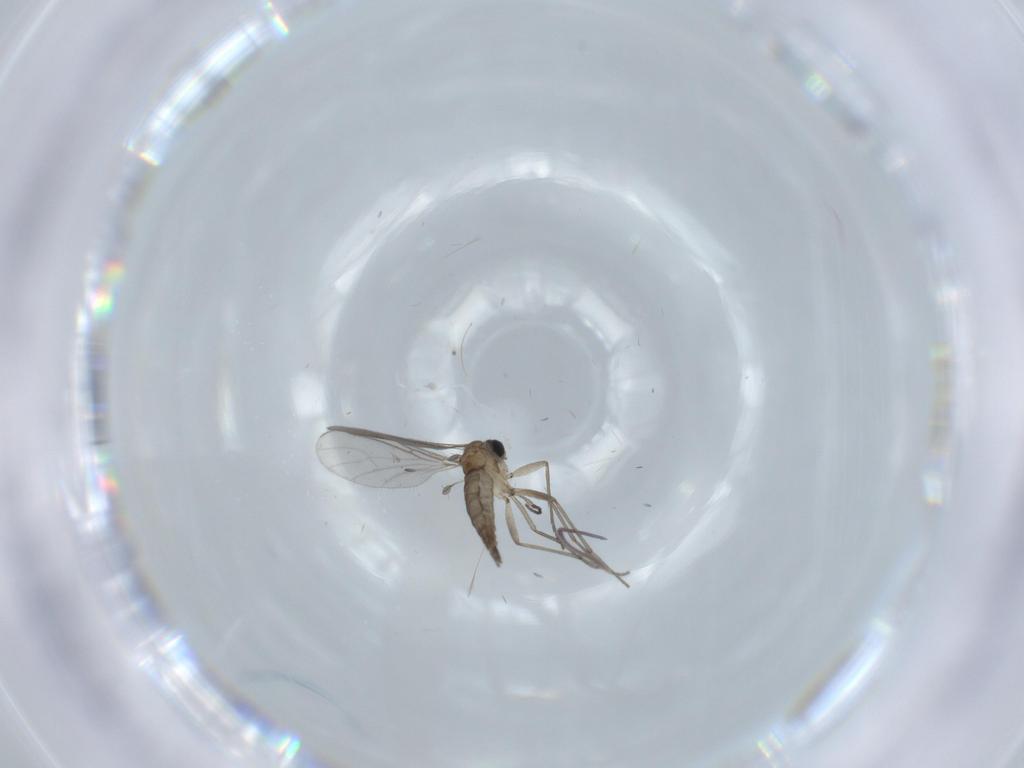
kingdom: Animalia
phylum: Arthropoda
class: Insecta
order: Diptera
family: Sciaridae
